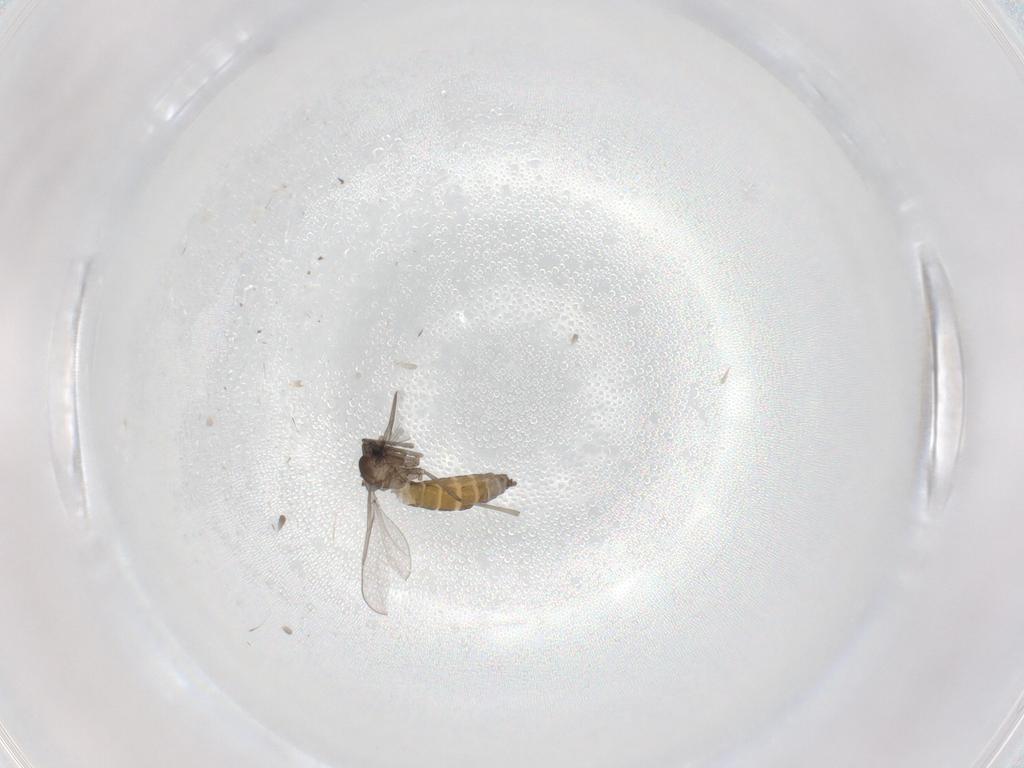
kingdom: Animalia
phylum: Arthropoda
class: Insecta
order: Diptera
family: Cecidomyiidae
